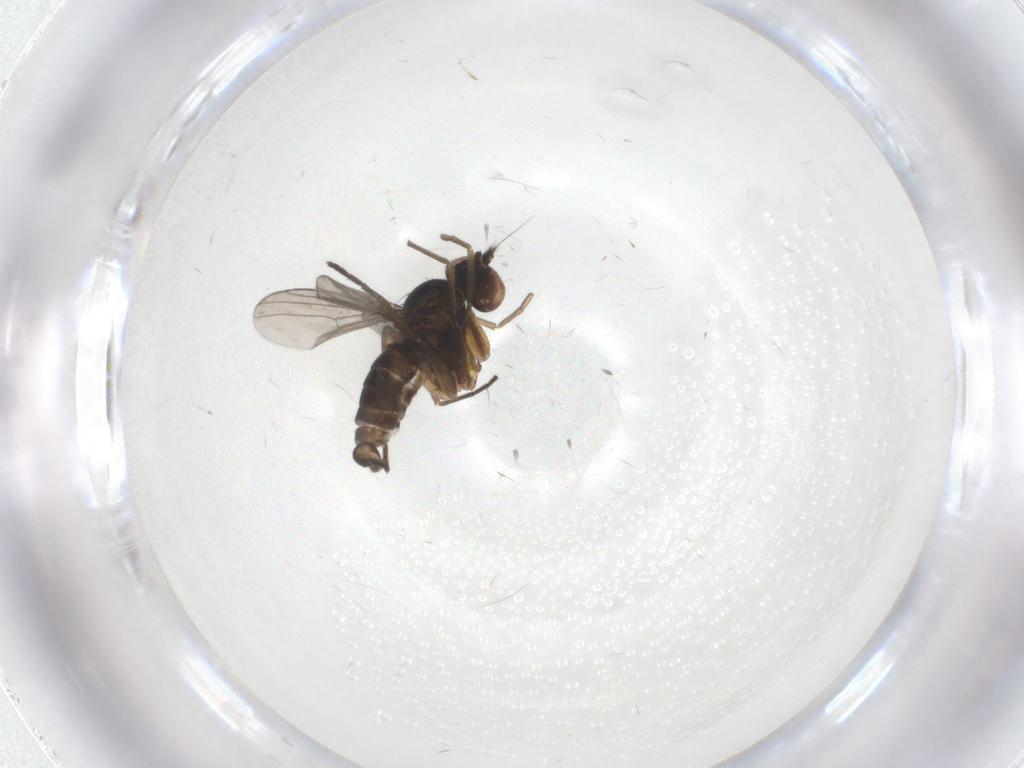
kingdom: Animalia
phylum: Arthropoda
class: Insecta
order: Diptera
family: Dolichopodidae
